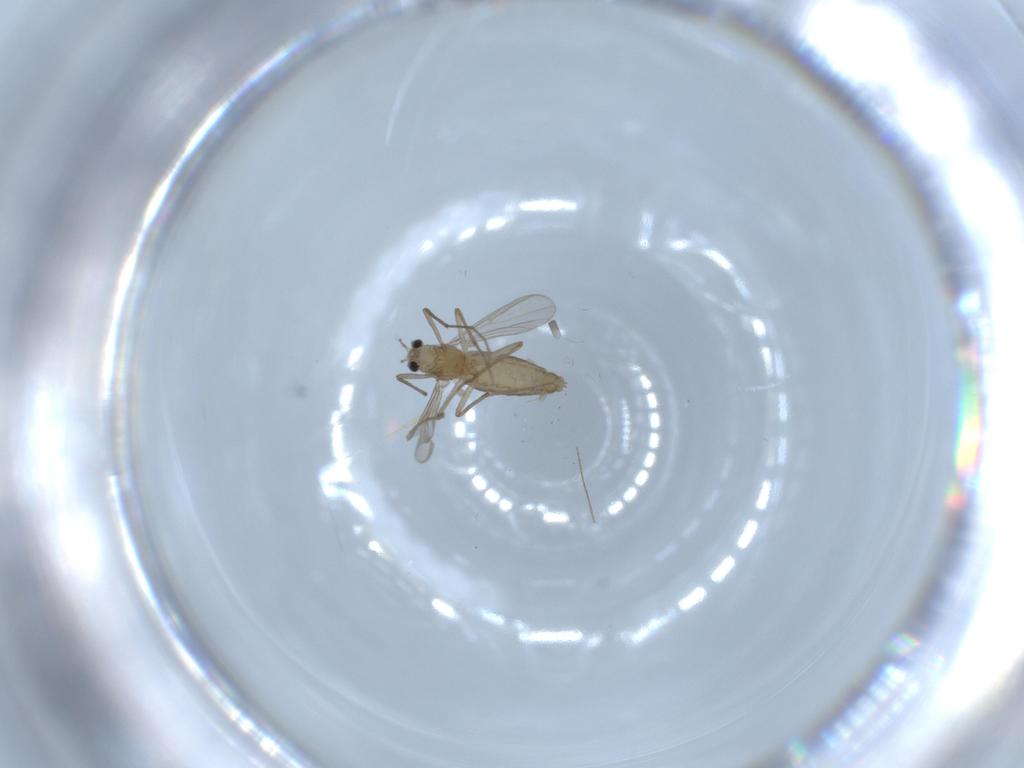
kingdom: Animalia
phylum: Arthropoda
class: Insecta
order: Diptera
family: Chironomidae
